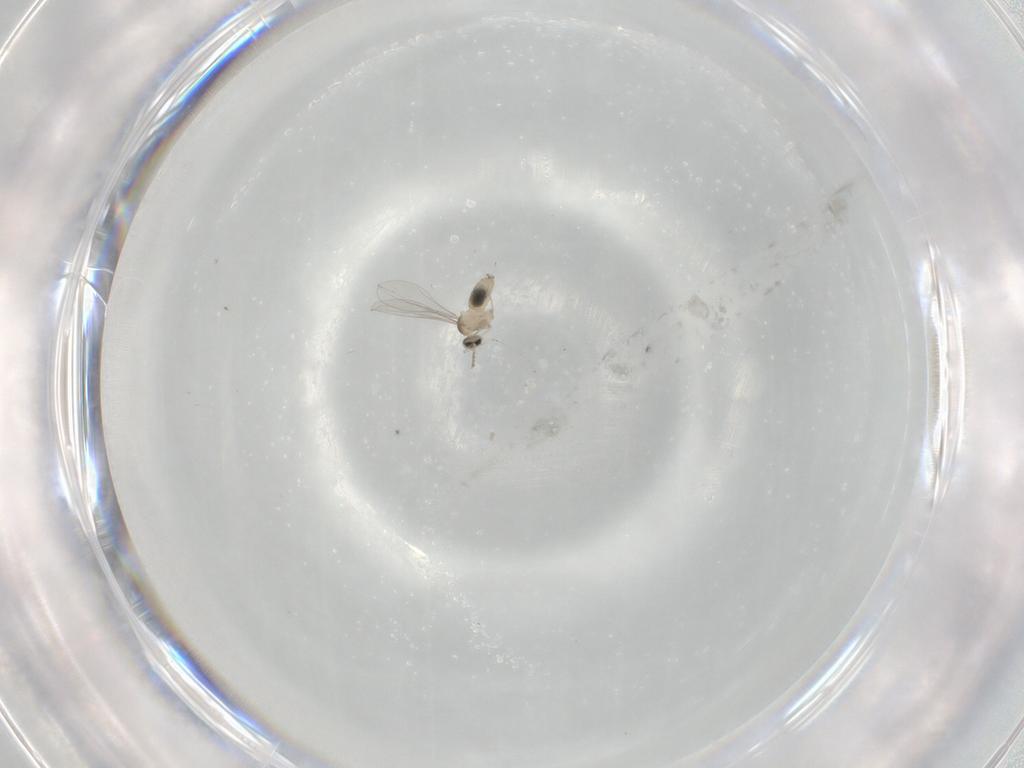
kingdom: Animalia
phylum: Arthropoda
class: Insecta
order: Diptera
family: Cecidomyiidae
